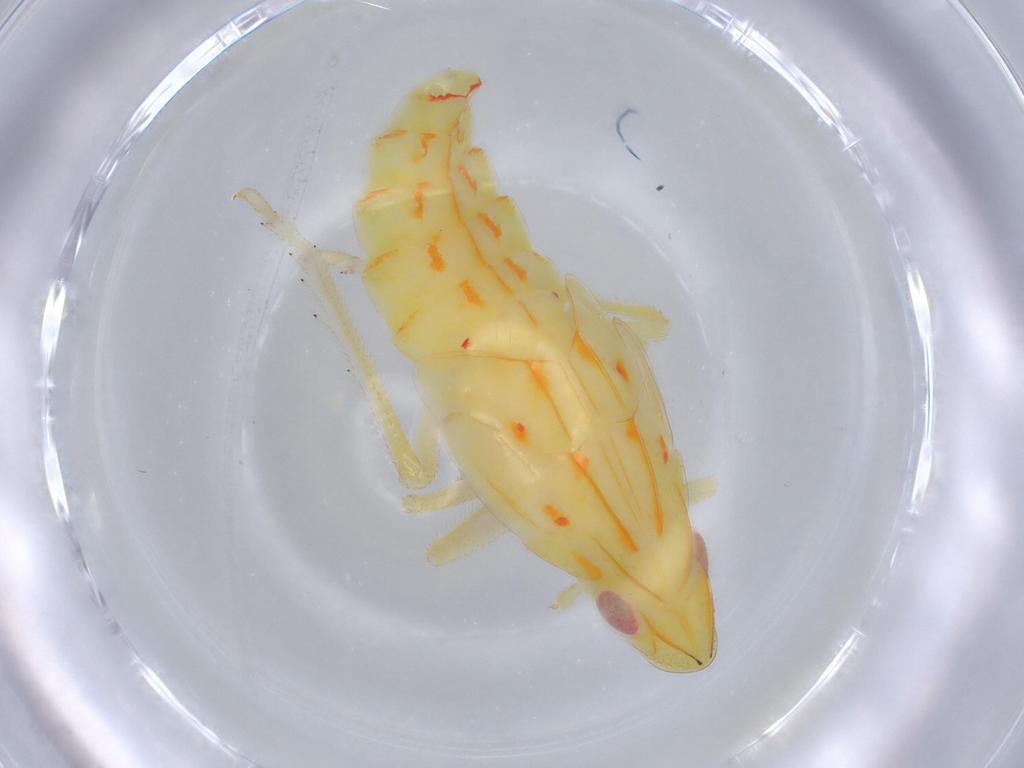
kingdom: Animalia
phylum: Arthropoda
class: Insecta
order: Hemiptera
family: Tropiduchidae
